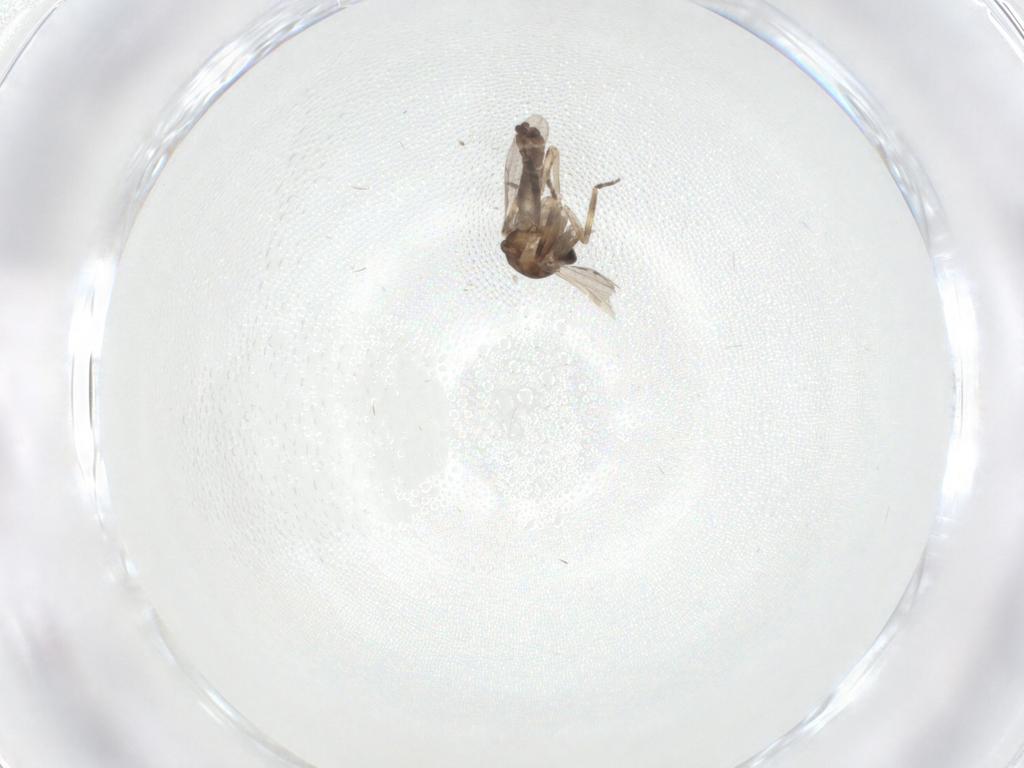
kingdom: Animalia
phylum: Arthropoda
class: Insecta
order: Diptera
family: Ceratopogonidae
